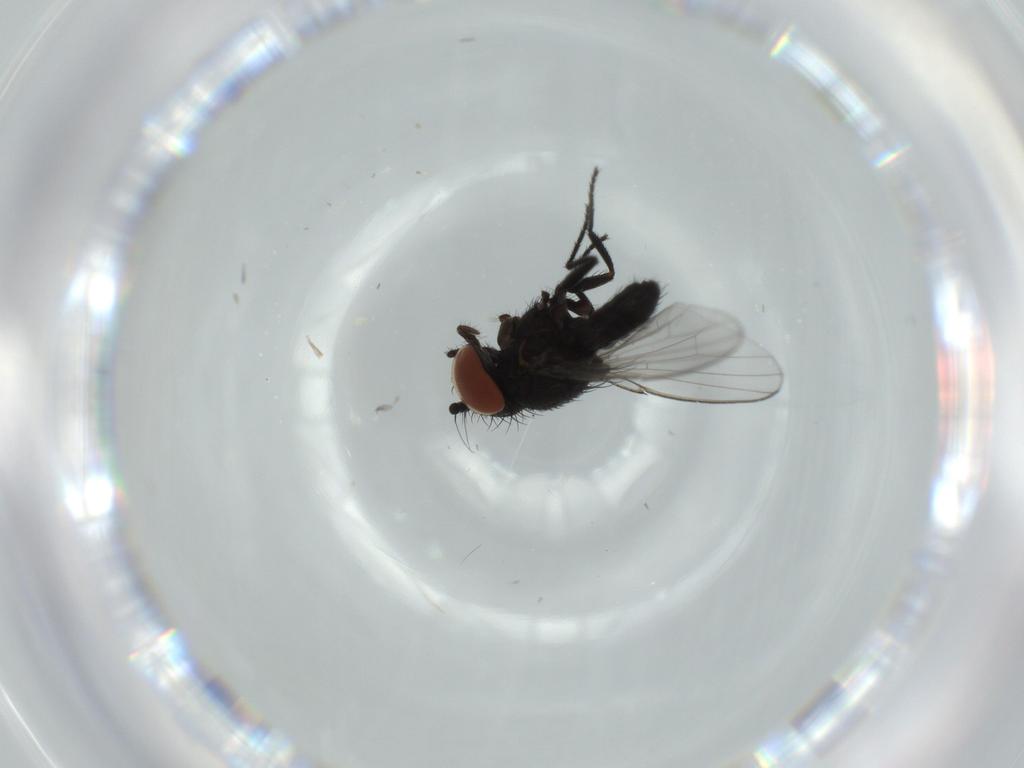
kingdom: Animalia
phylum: Arthropoda
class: Insecta
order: Diptera
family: Milichiidae
